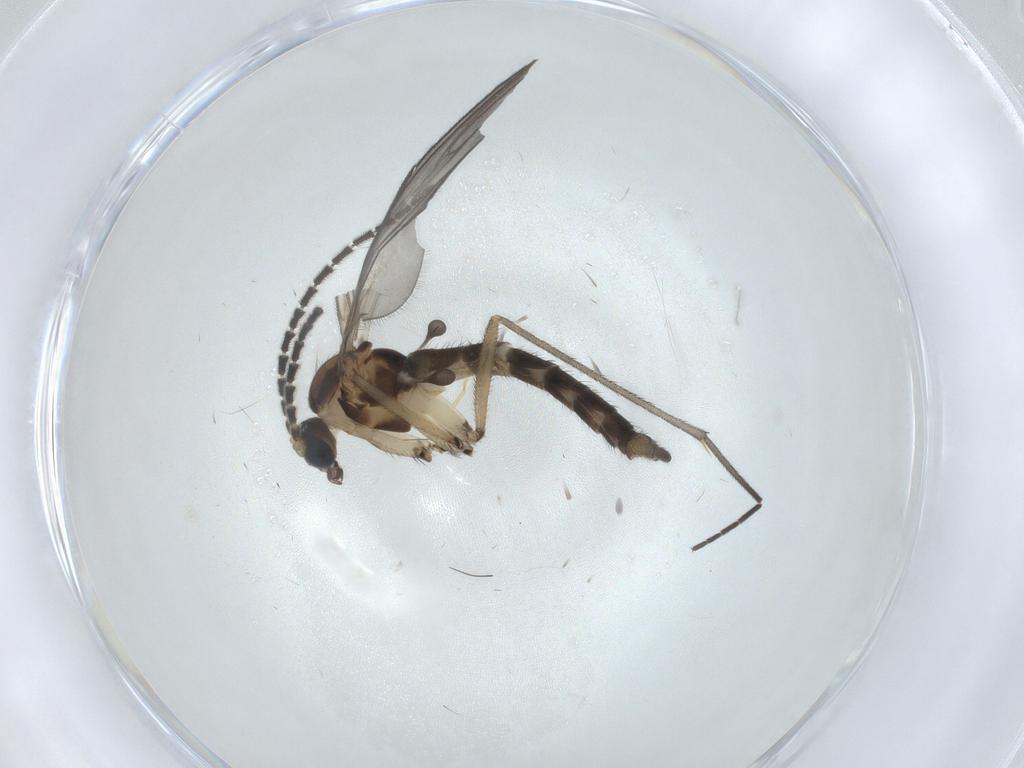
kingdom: Animalia
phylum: Arthropoda
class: Insecta
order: Diptera
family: Sciaridae
